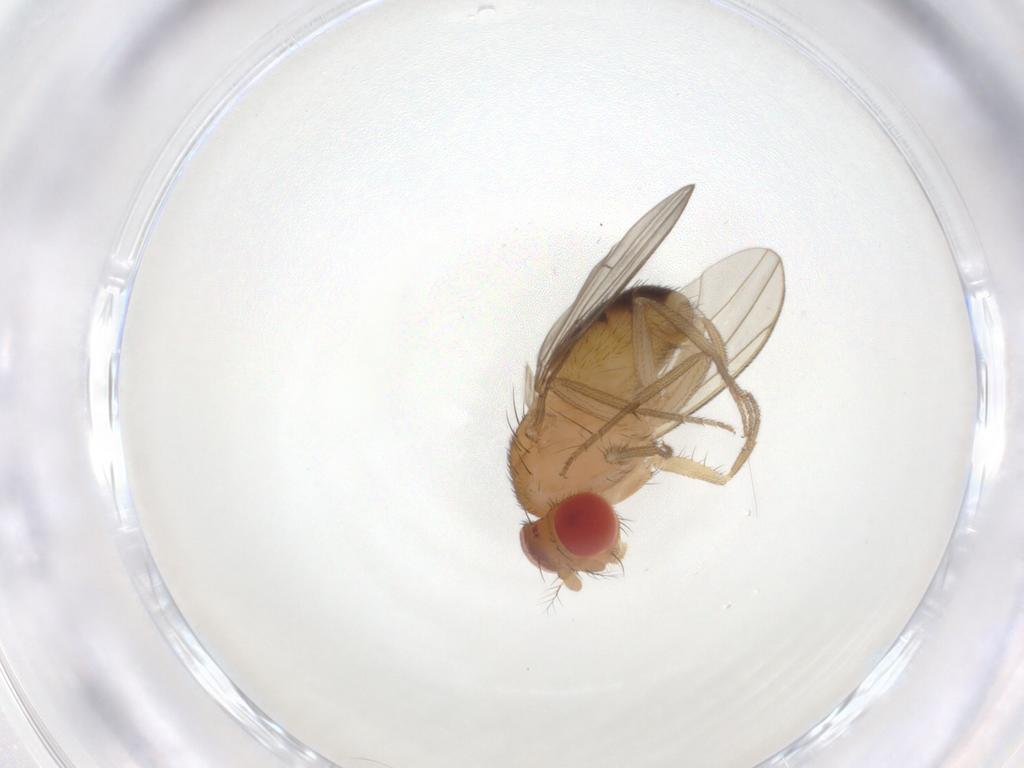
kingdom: Animalia
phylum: Arthropoda
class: Insecta
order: Diptera
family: Drosophilidae
